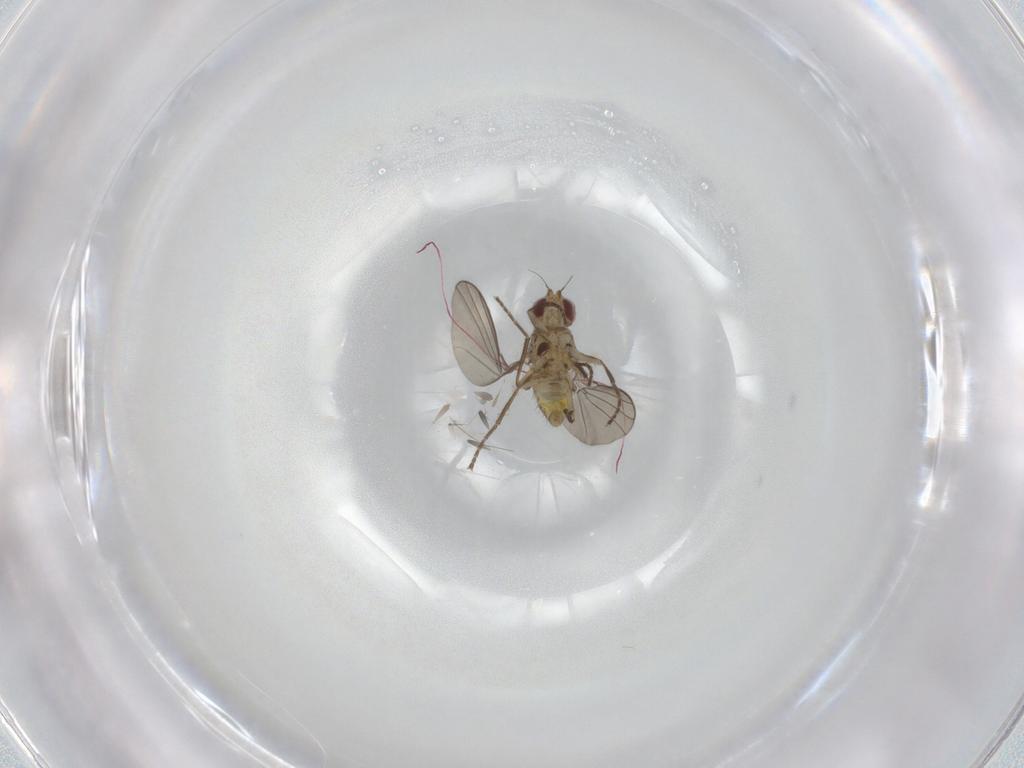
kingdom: Animalia
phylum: Arthropoda
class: Insecta
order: Diptera
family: Agromyzidae
